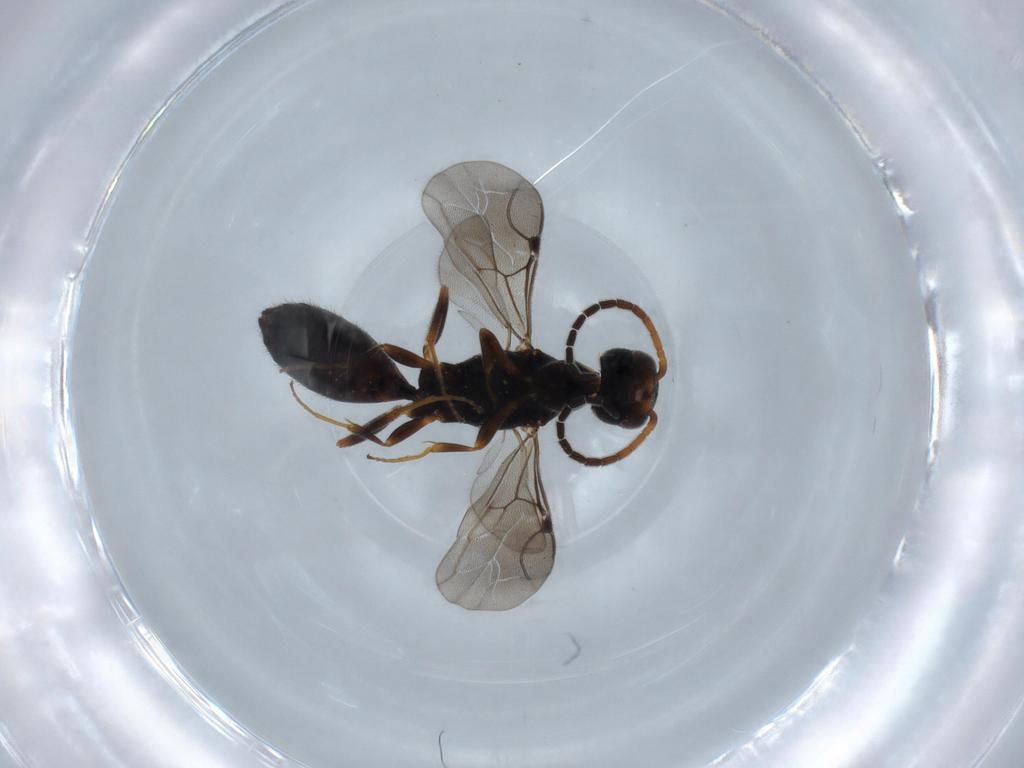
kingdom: Animalia
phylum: Arthropoda
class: Insecta
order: Hymenoptera
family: Bethylidae
